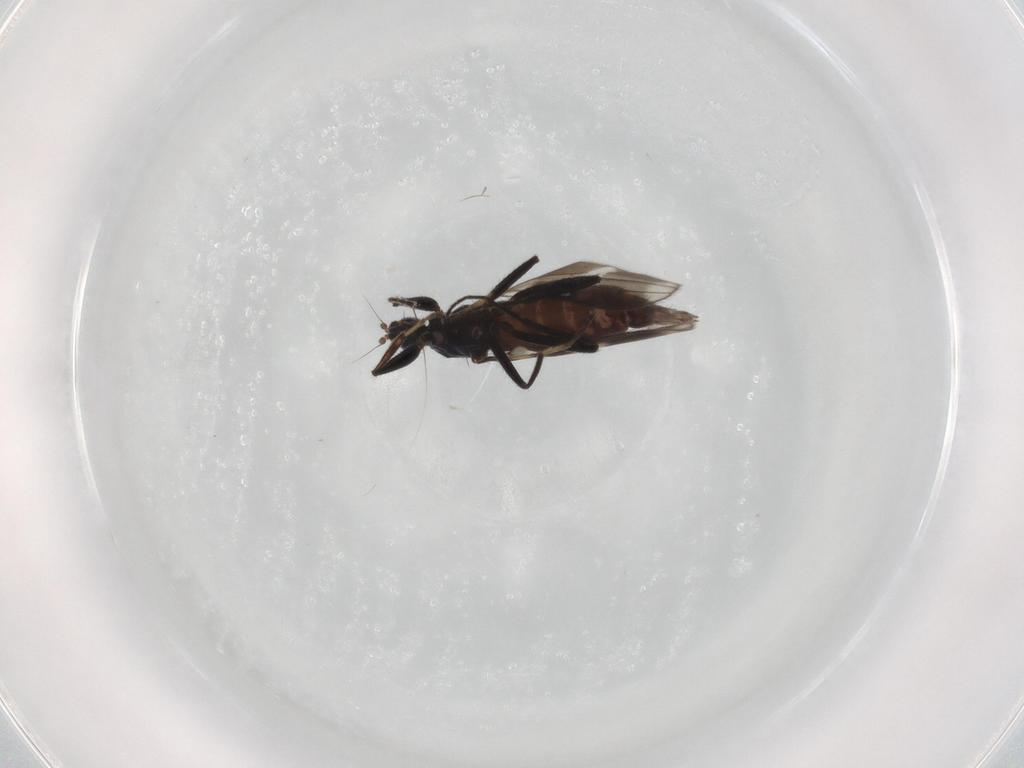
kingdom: Animalia
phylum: Arthropoda
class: Insecta
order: Diptera
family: Hybotidae
